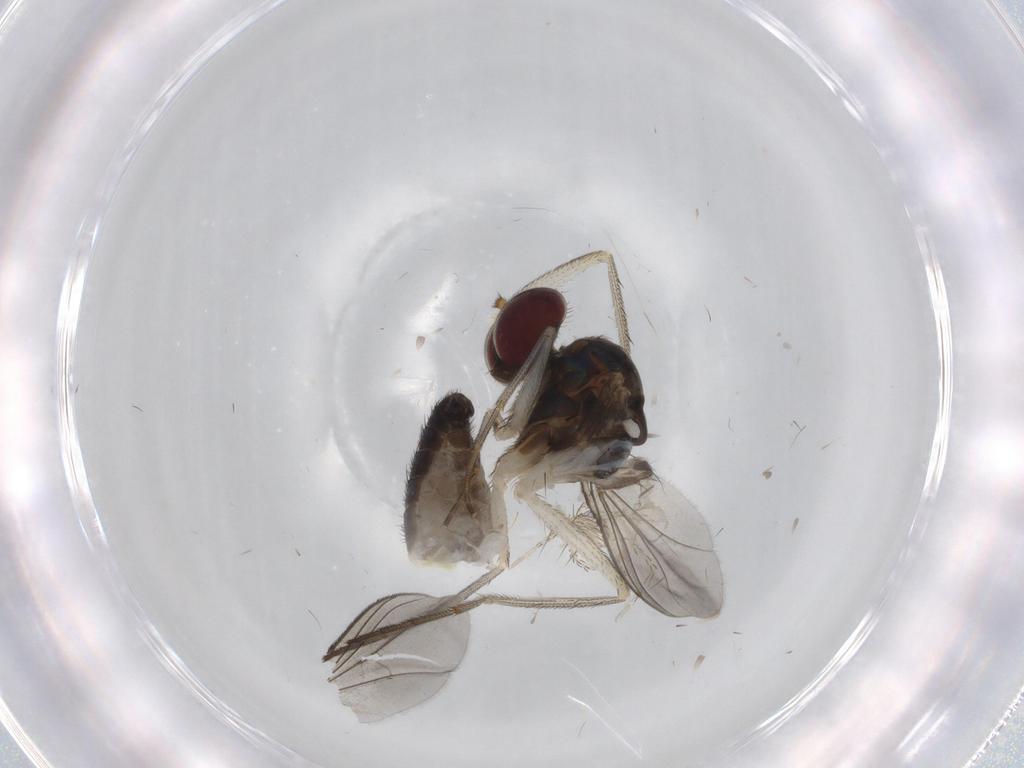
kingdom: Animalia
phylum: Arthropoda
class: Insecta
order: Diptera
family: Dolichopodidae
